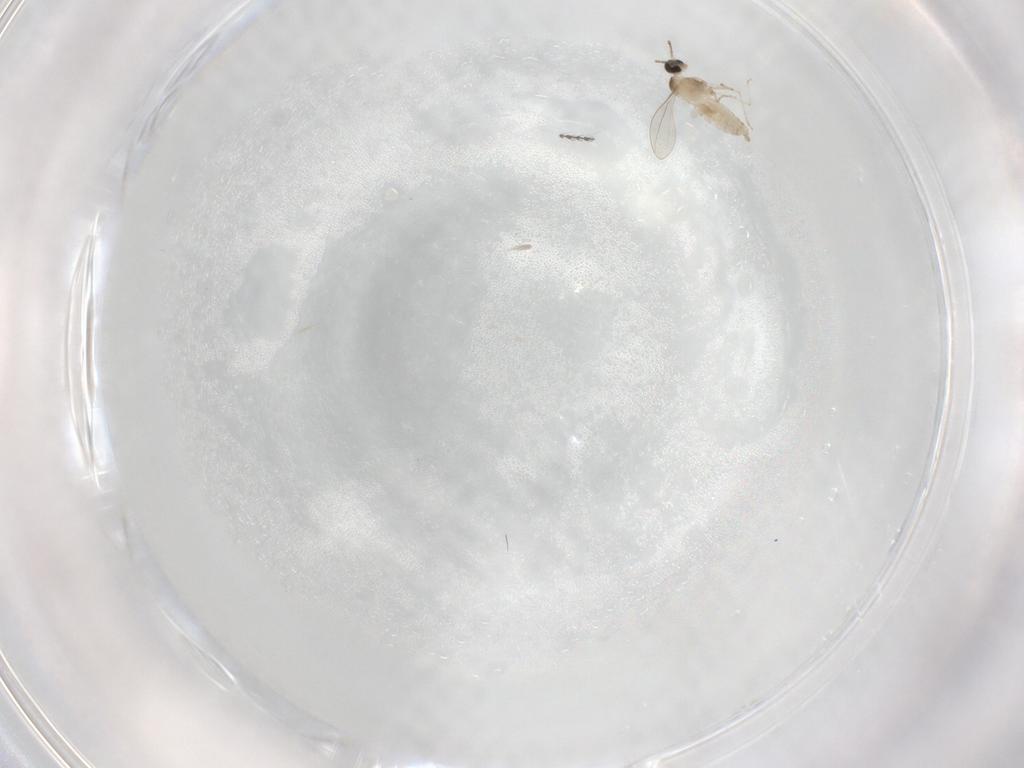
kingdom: Animalia
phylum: Arthropoda
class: Insecta
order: Diptera
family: Cecidomyiidae
